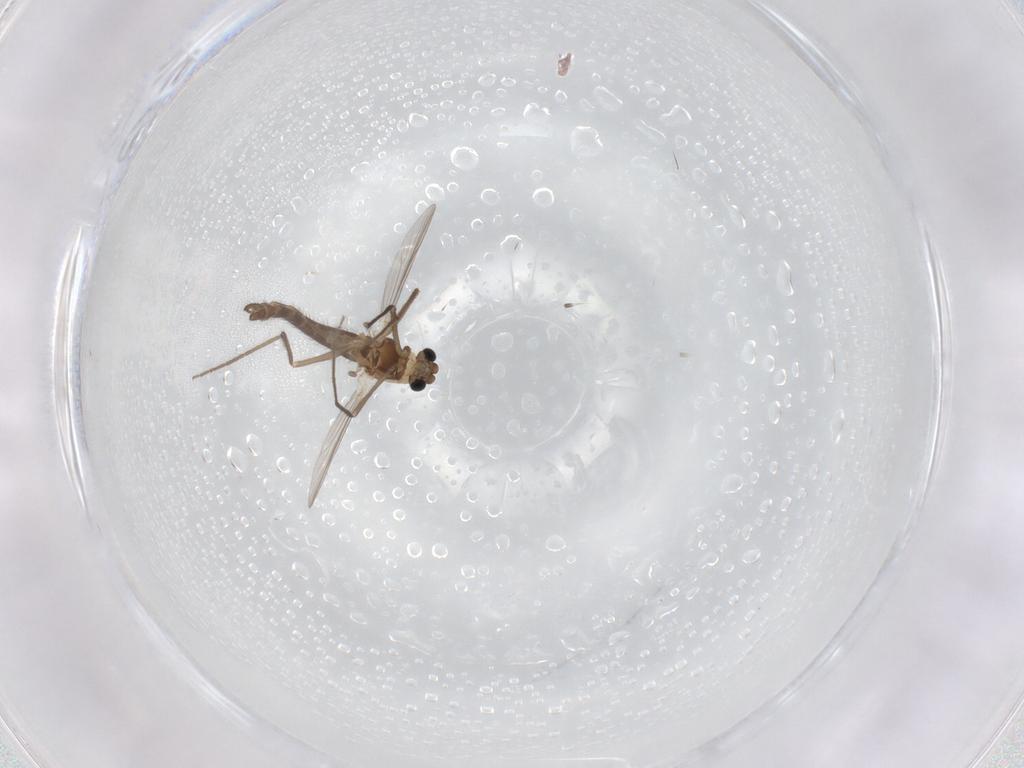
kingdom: Animalia
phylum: Arthropoda
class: Insecta
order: Diptera
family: Chironomidae
